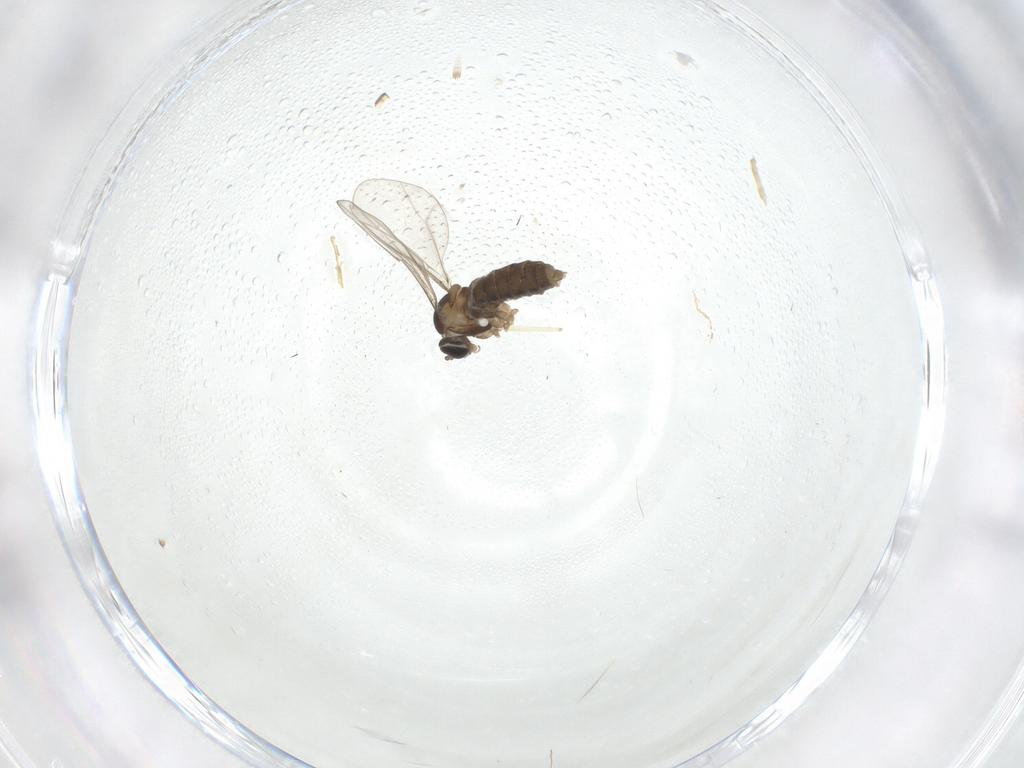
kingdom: Animalia
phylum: Arthropoda
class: Insecta
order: Diptera
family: Cecidomyiidae
